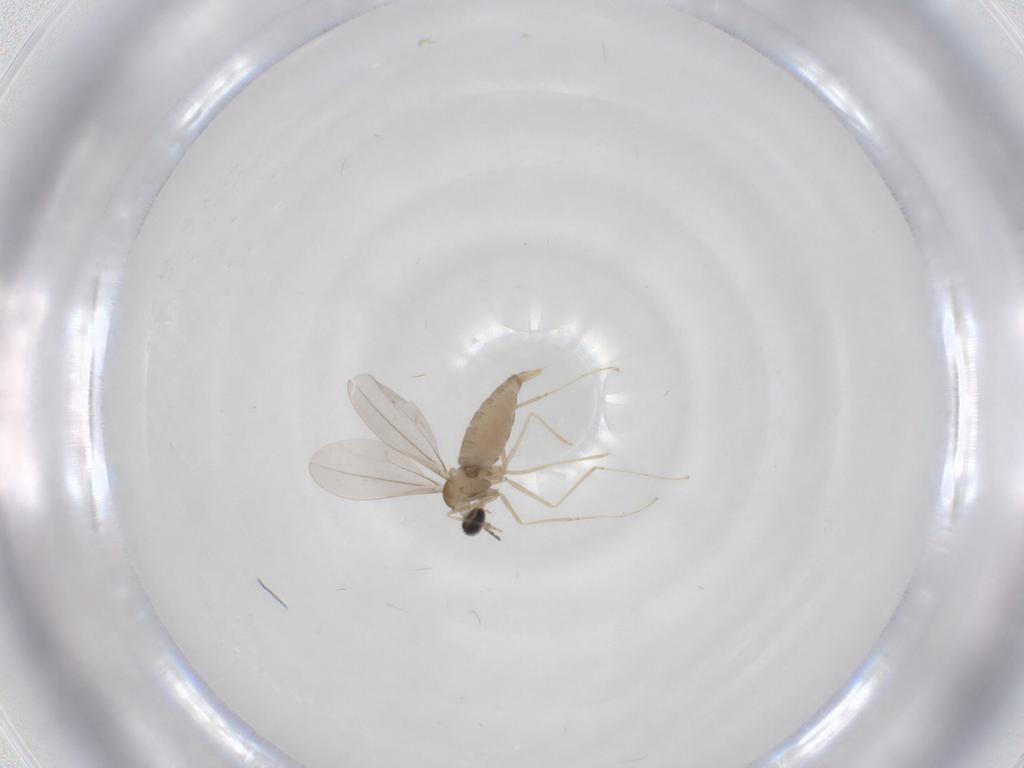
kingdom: Animalia
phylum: Arthropoda
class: Insecta
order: Diptera
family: Cecidomyiidae
